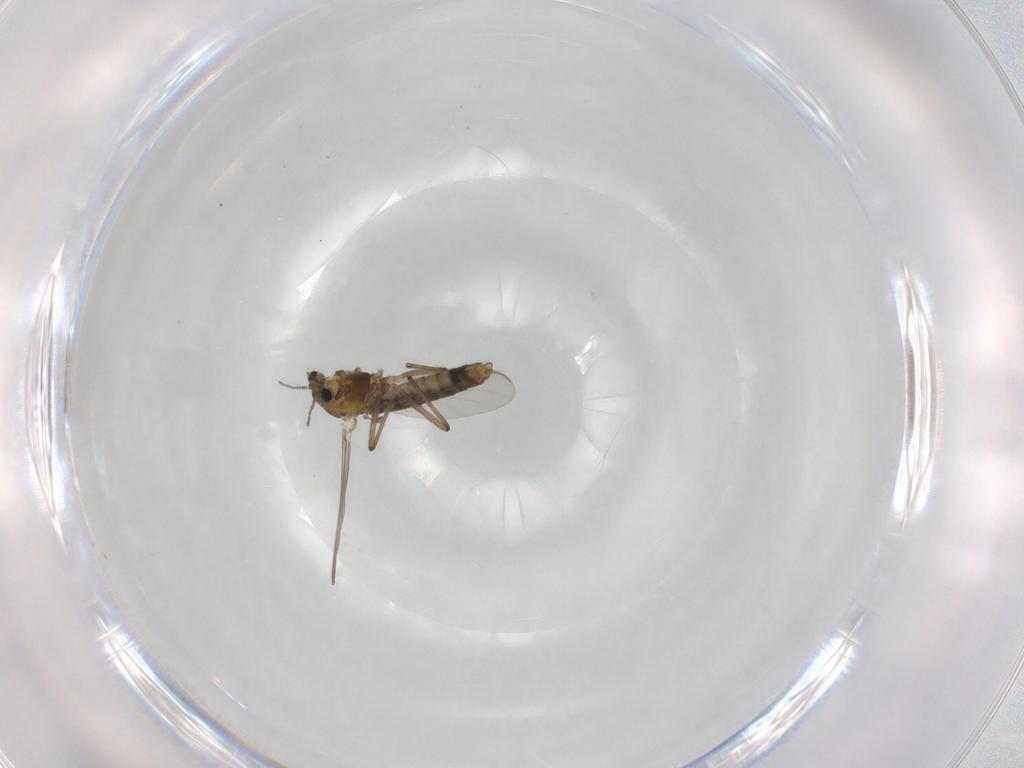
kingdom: Animalia
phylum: Arthropoda
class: Insecta
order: Diptera
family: Chironomidae
